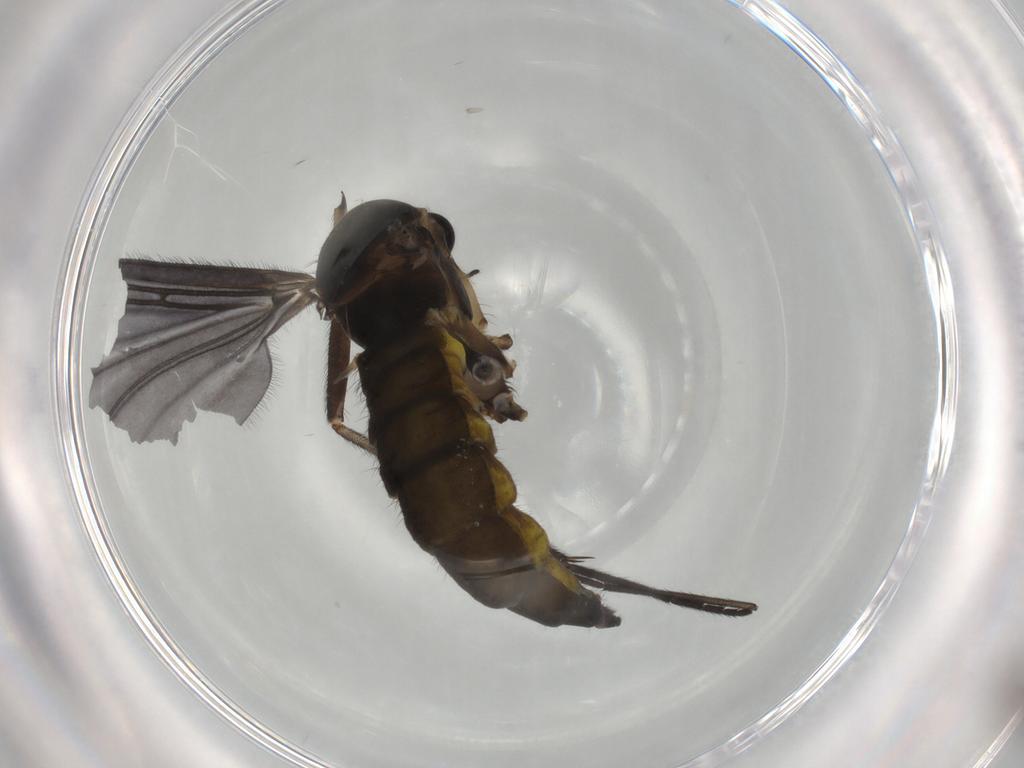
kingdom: Animalia
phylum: Arthropoda
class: Insecta
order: Diptera
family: Sciaridae
